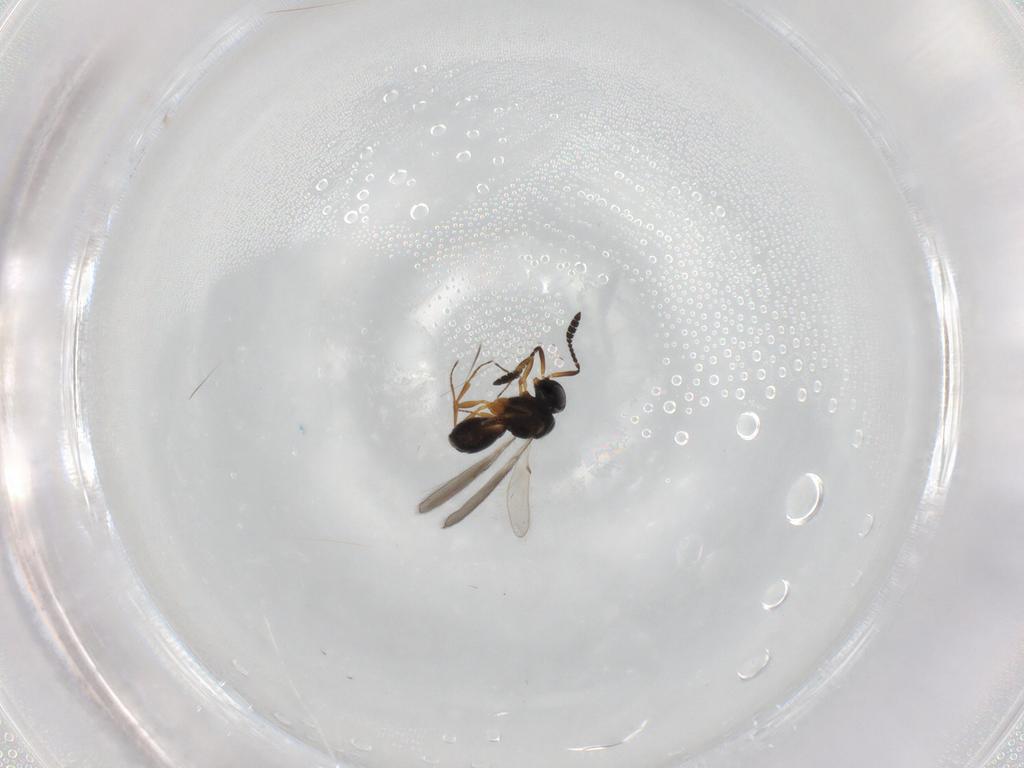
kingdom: Animalia
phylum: Arthropoda
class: Insecta
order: Hymenoptera
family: Scelionidae
